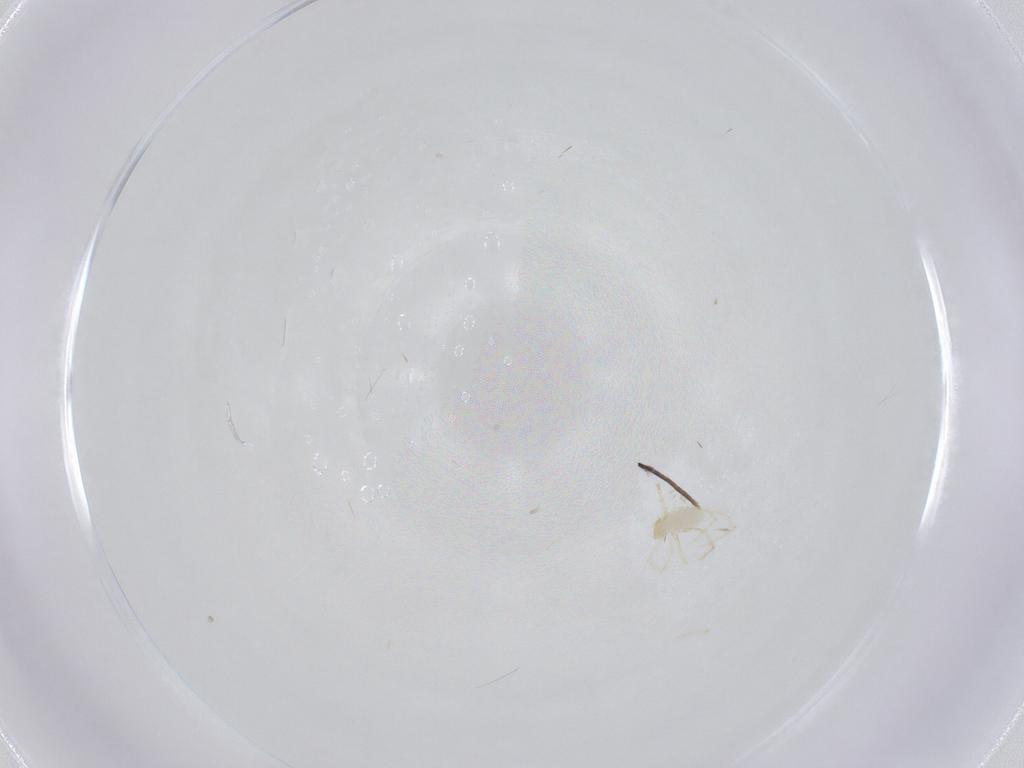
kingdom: Animalia
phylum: Arthropoda
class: Arachnida
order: Trombidiformes
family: Erythraeidae
